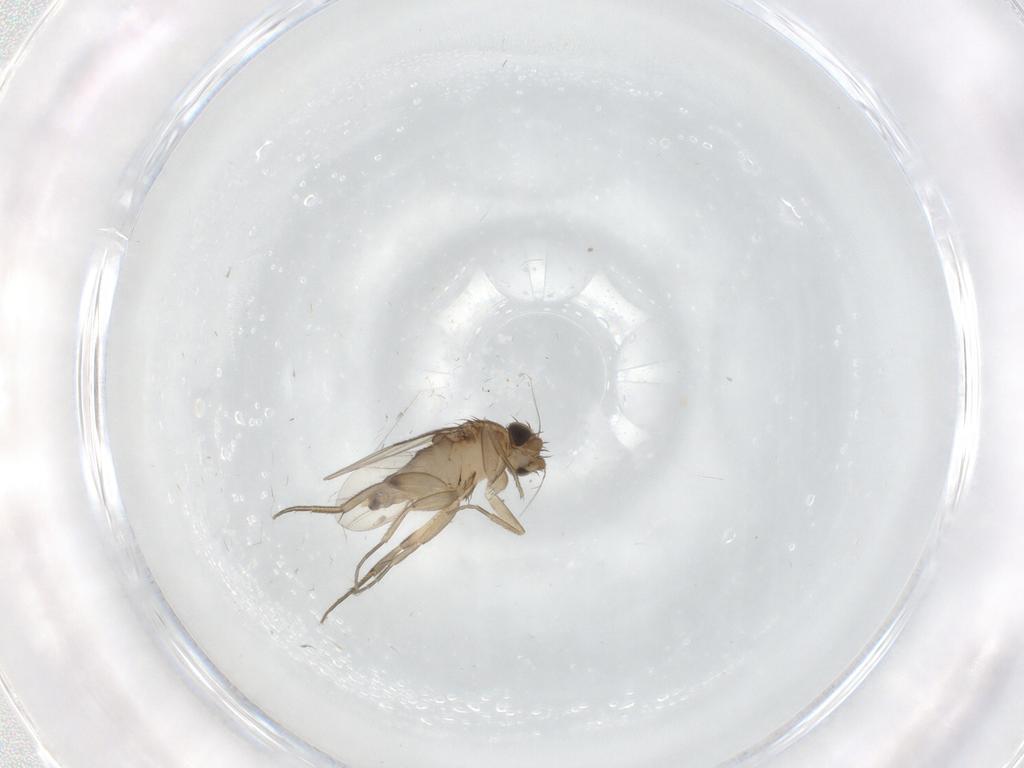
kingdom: Animalia
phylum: Arthropoda
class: Insecta
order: Diptera
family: Phoridae
